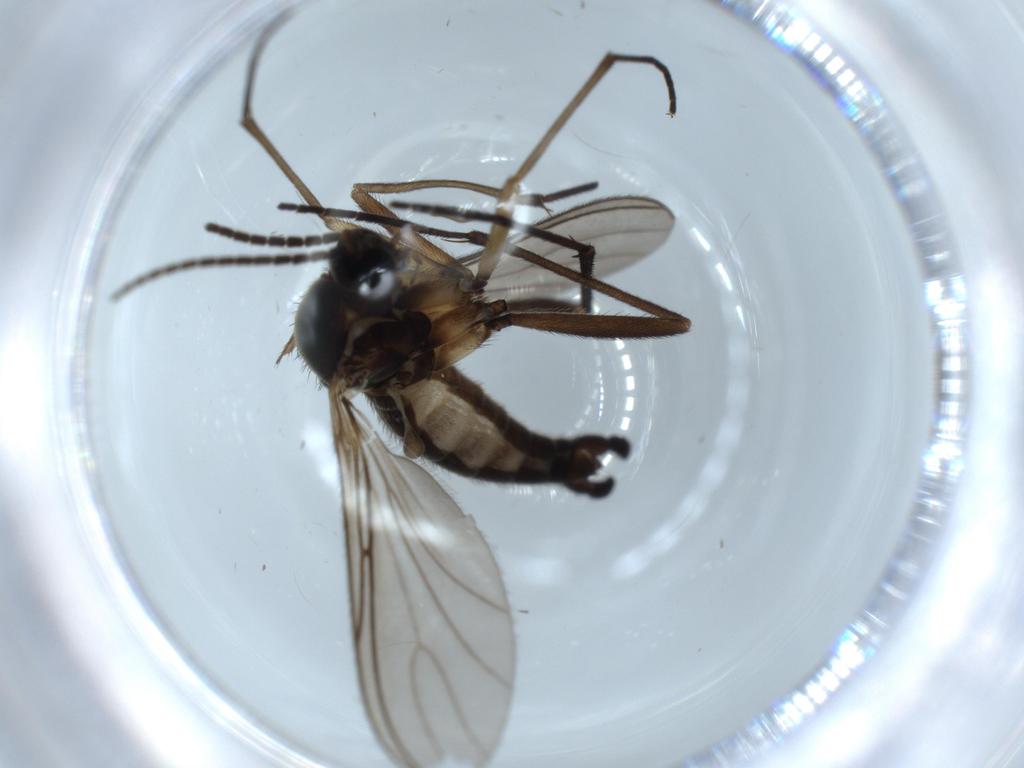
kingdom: Animalia
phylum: Arthropoda
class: Insecta
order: Diptera
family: Sciaridae
